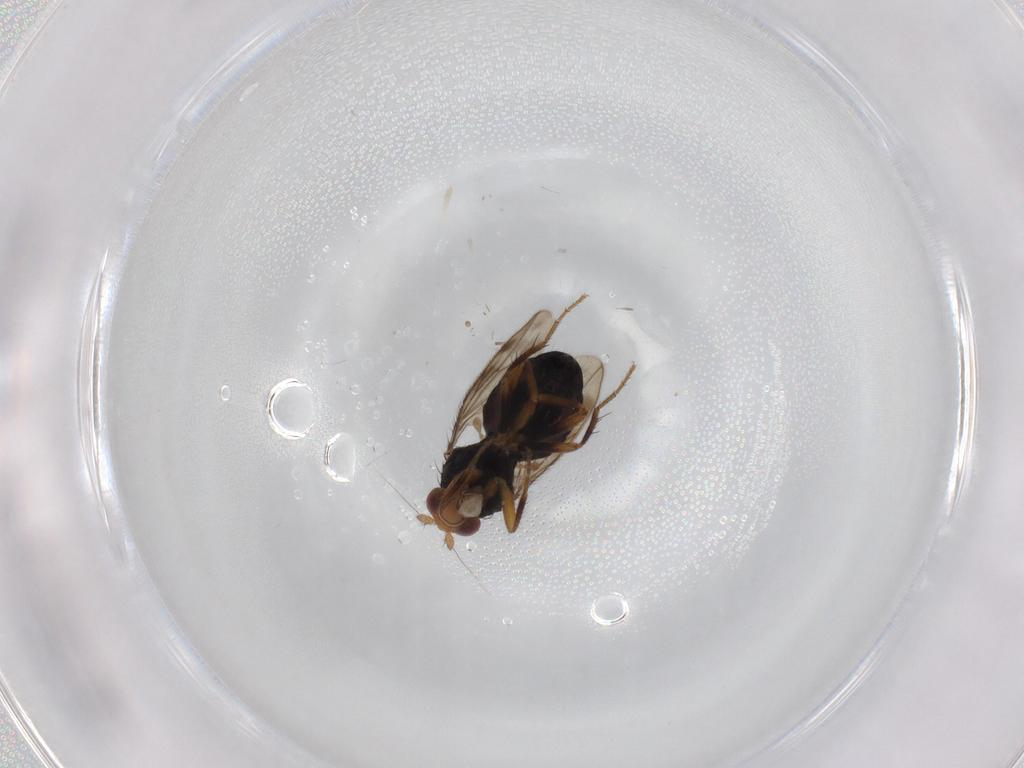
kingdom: Animalia
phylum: Arthropoda
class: Insecta
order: Diptera
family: Sphaeroceridae
